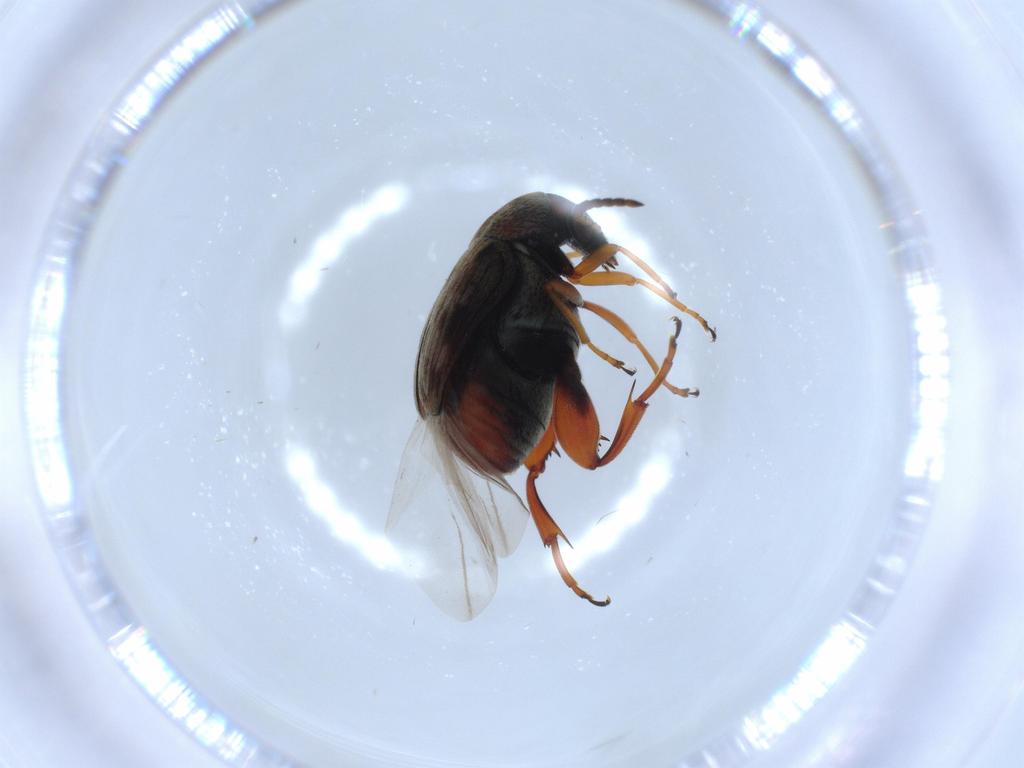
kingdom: Animalia
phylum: Arthropoda
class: Insecta
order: Coleoptera
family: Chrysomelidae
